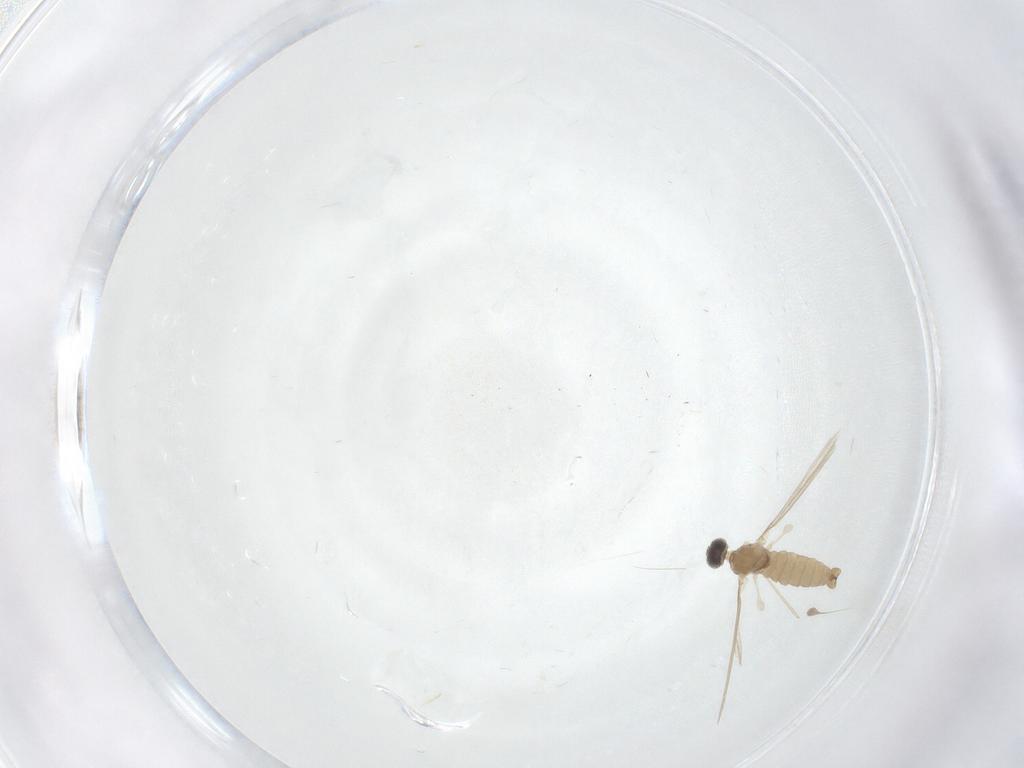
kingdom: Animalia
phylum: Arthropoda
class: Insecta
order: Diptera
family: Cecidomyiidae
